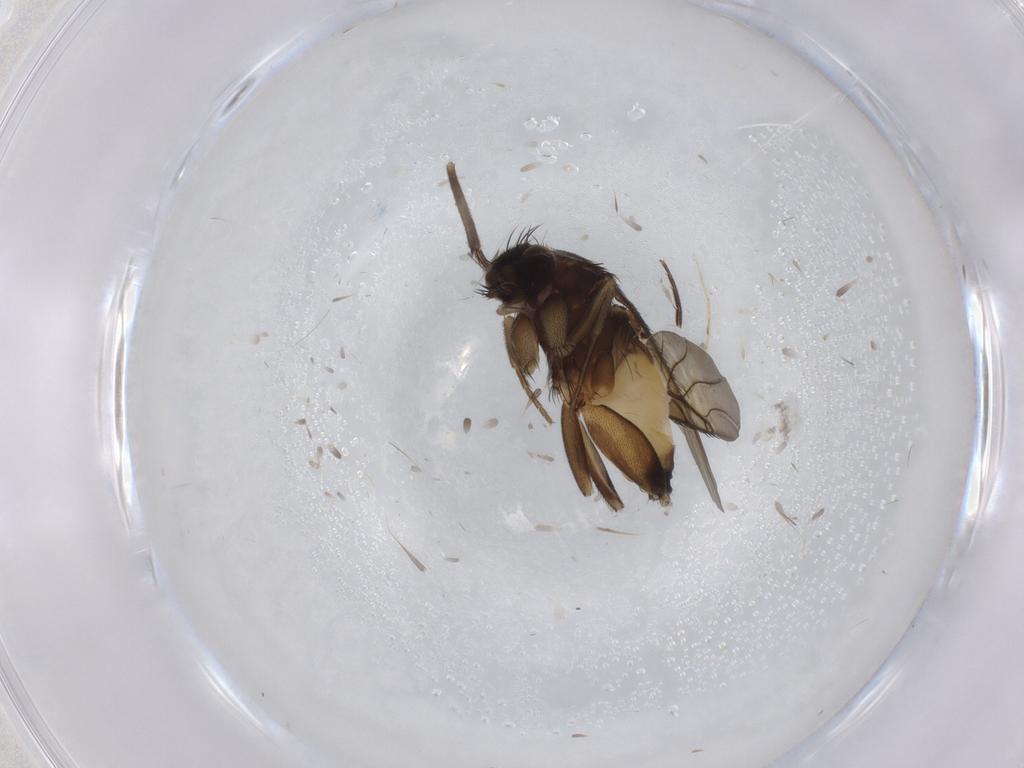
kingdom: Animalia
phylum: Arthropoda
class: Insecta
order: Diptera
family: Phoridae
